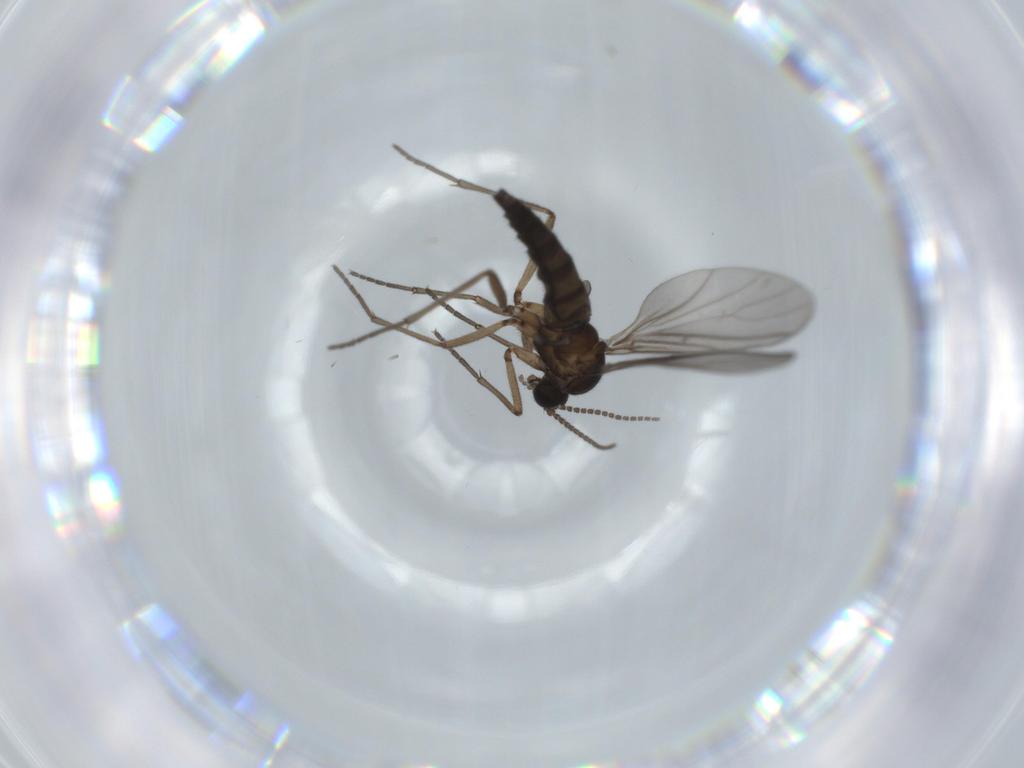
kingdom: Animalia
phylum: Arthropoda
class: Insecta
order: Diptera
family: Sciaridae
